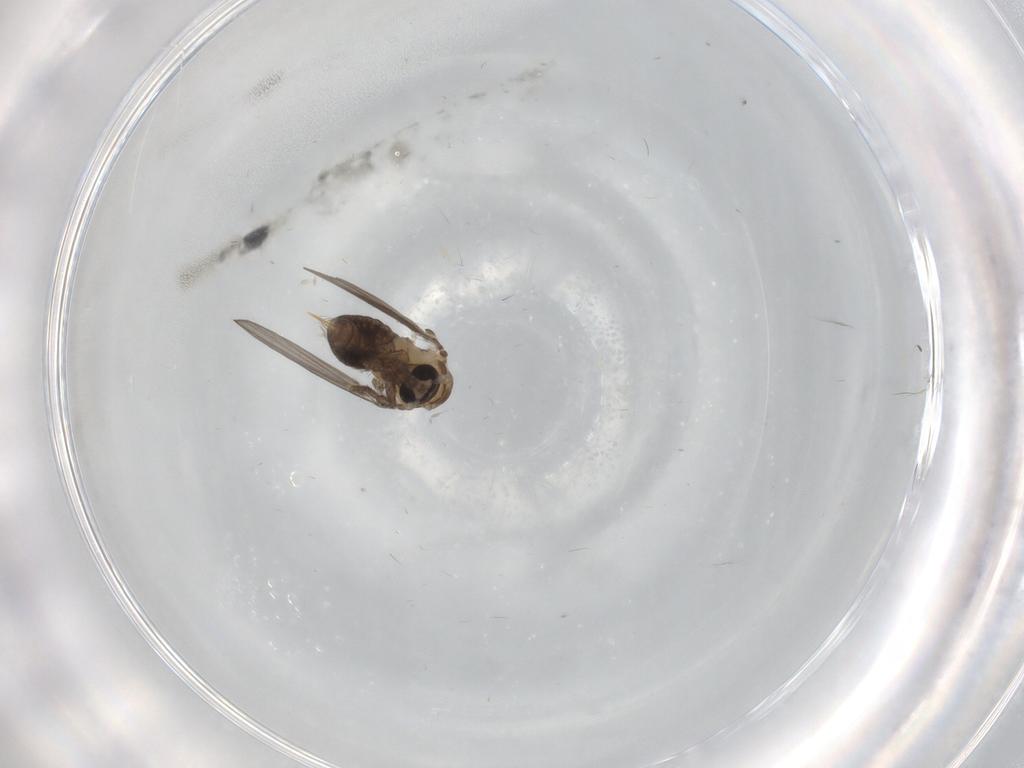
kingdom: Animalia
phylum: Arthropoda
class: Insecta
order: Diptera
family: Psychodidae
